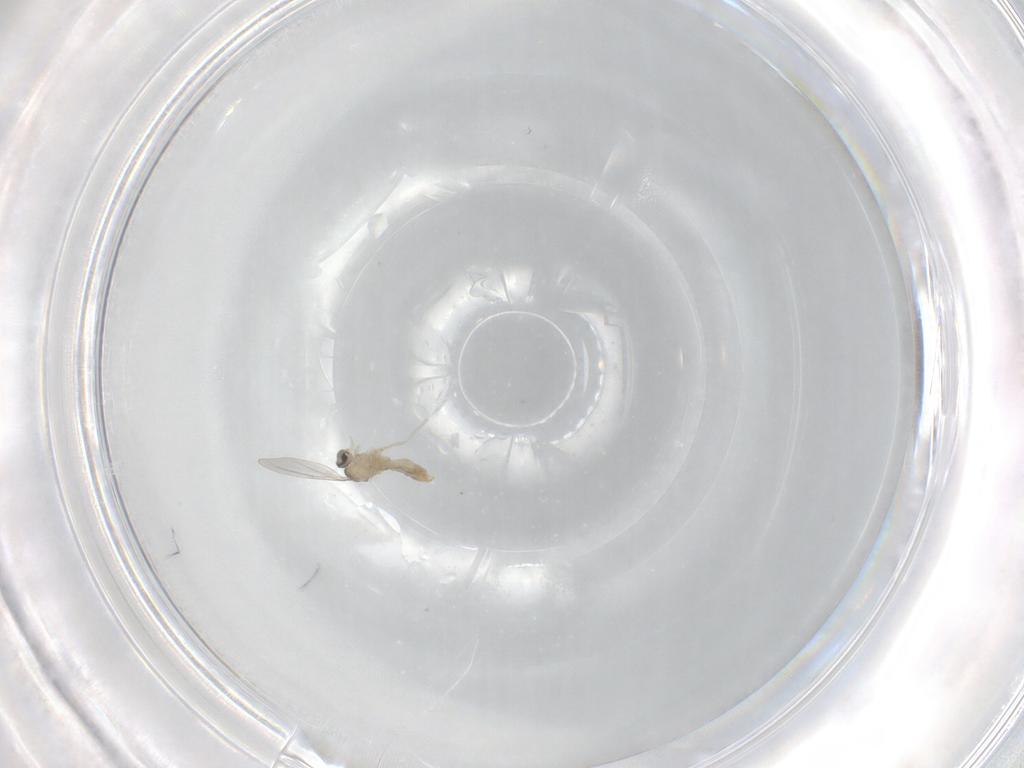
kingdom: Animalia
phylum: Arthropoda
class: Insecta
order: Diptera
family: Cecidomyiidae
